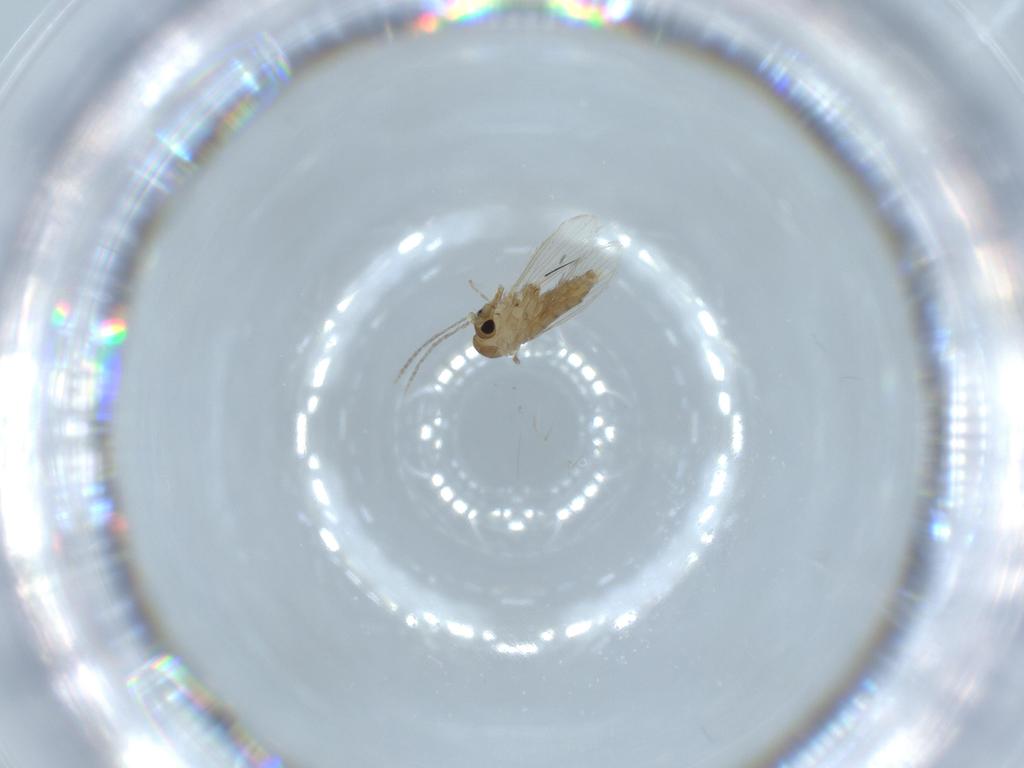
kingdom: Animalia
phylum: Arthropoda
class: Insecta
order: Diptera
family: Psychodidae
